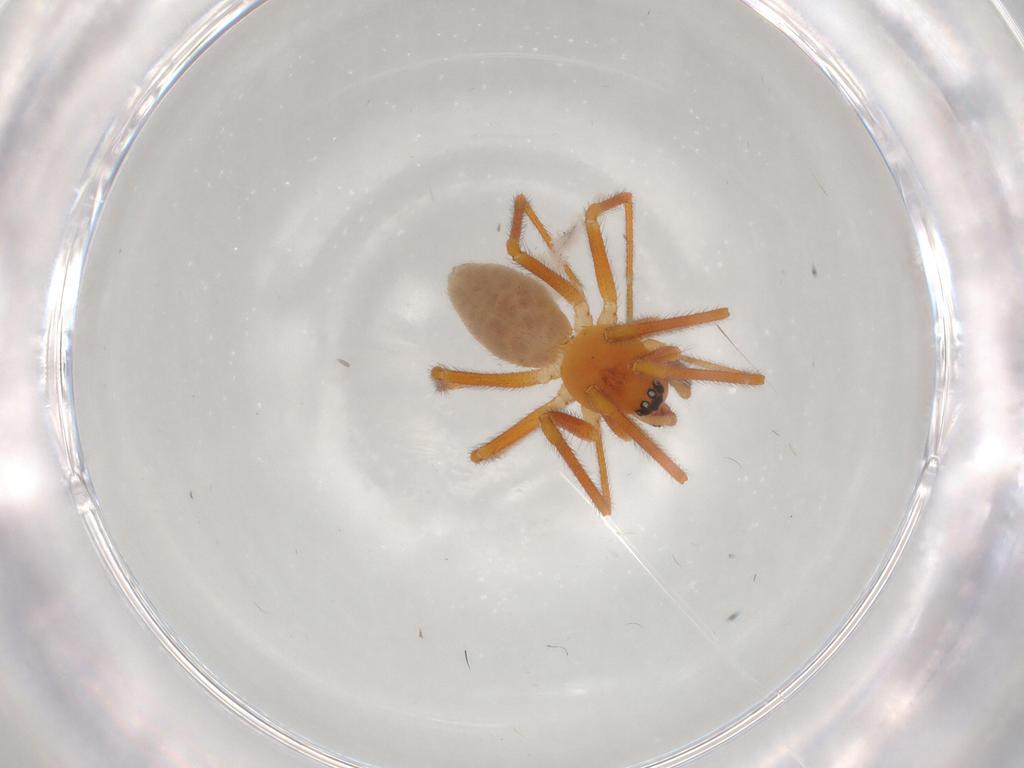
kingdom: Animalia
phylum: Arthropoda
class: Arachnida
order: Araneae
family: Linyphiidae
